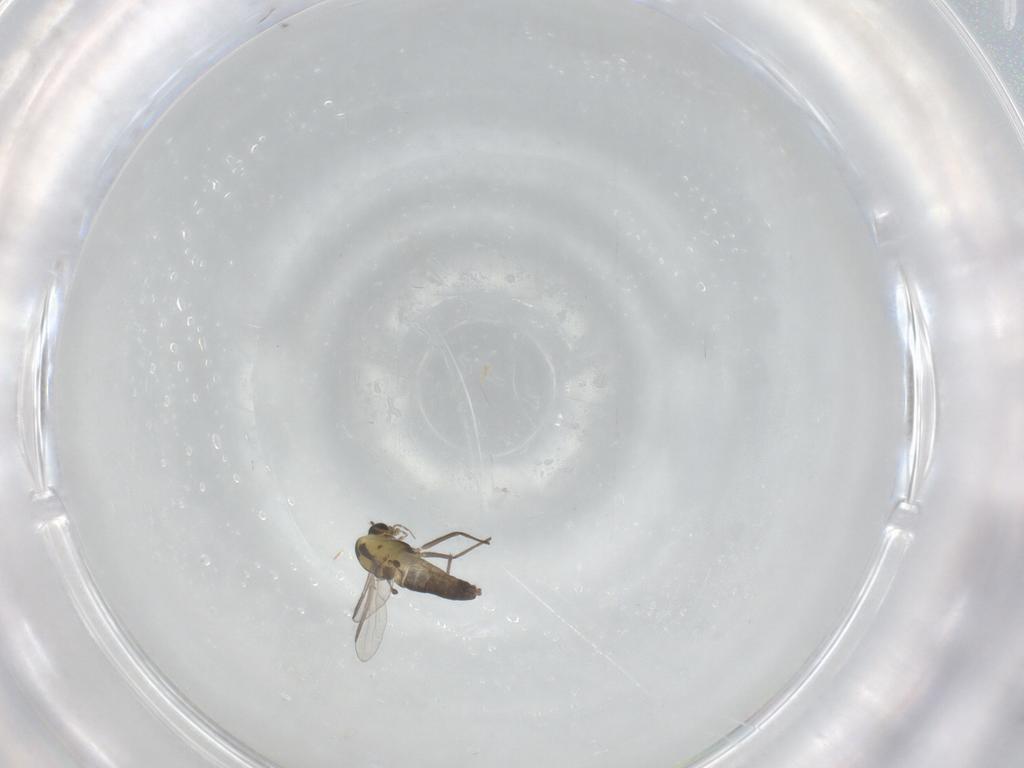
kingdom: Animalia
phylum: Arthropoda
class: Insecta
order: Diptera
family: Chironomidae
